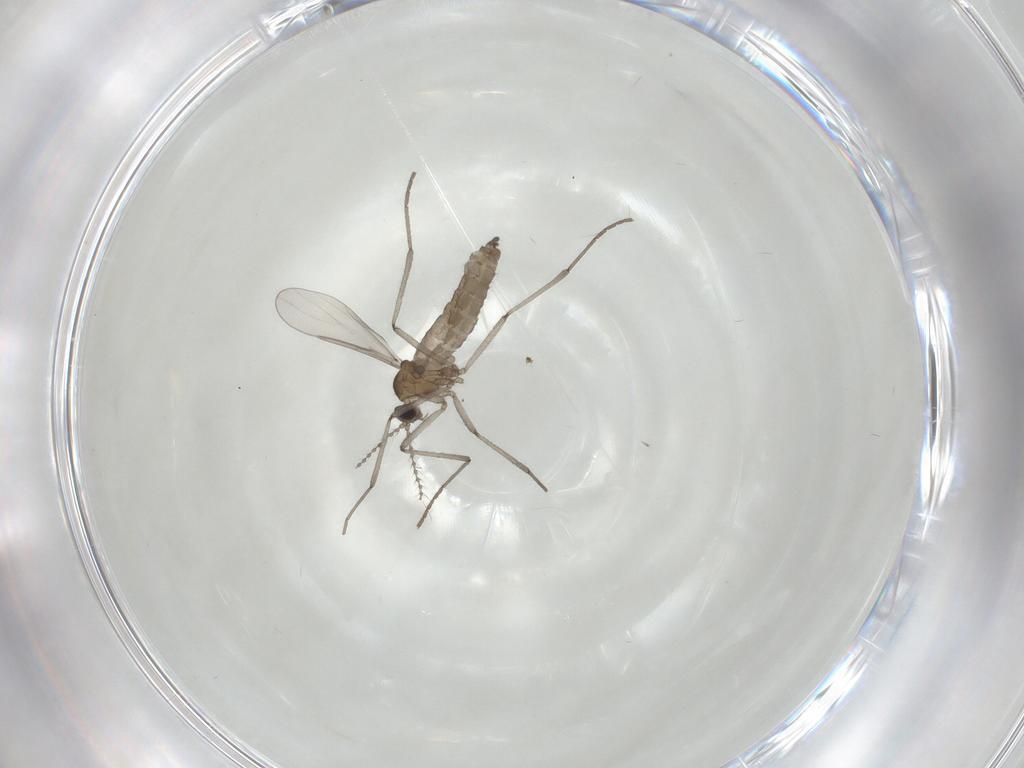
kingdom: Animalia
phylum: Arthropoda
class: Insecta
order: Diptera
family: Cecidomyiidae
